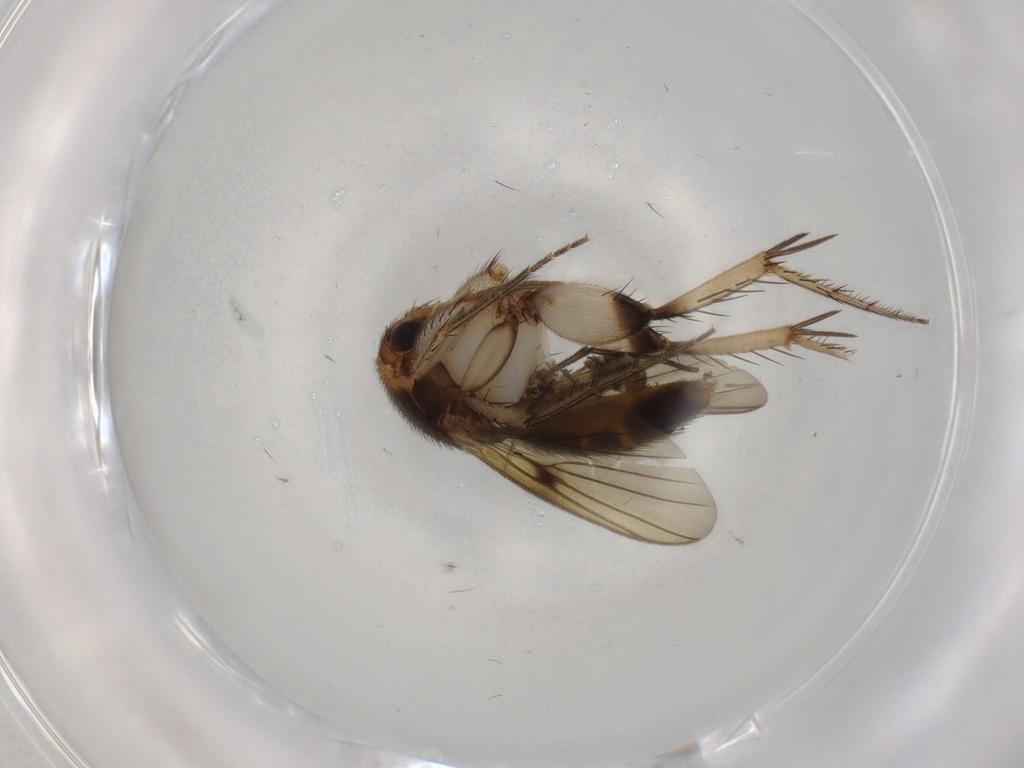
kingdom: Animalia
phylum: Arthropoda
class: Insecta
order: Diptera
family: Mycetophilidae
